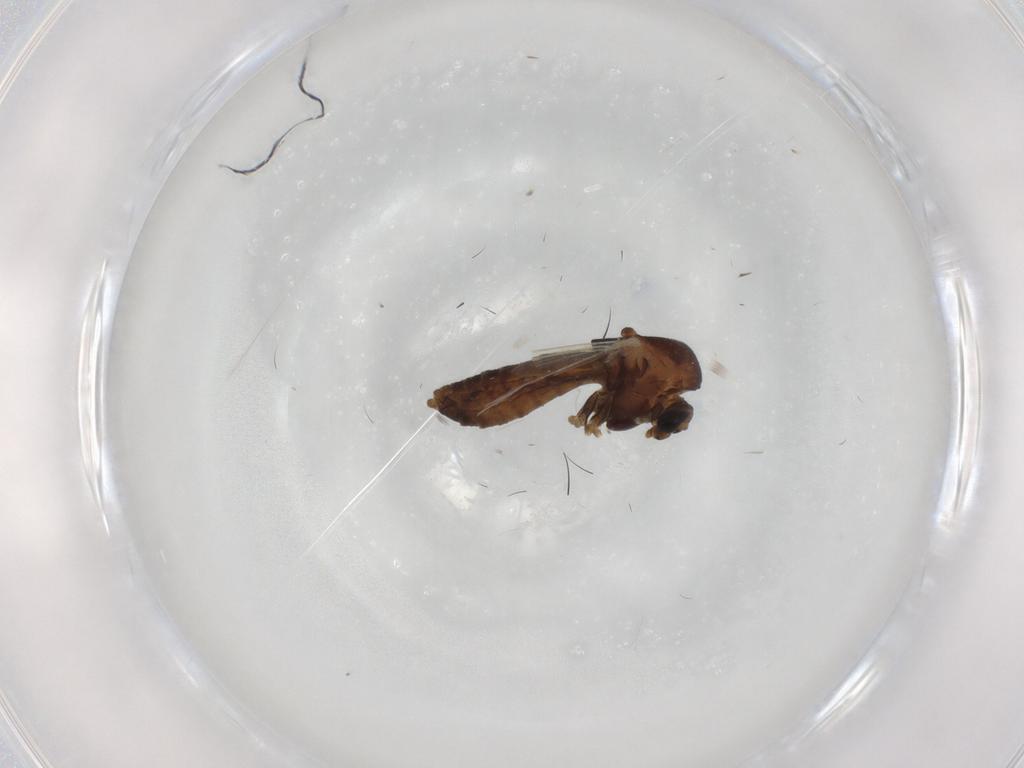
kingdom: Animalia
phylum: Arthropoda
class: Insecta
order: Diptera
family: Chironomidae
